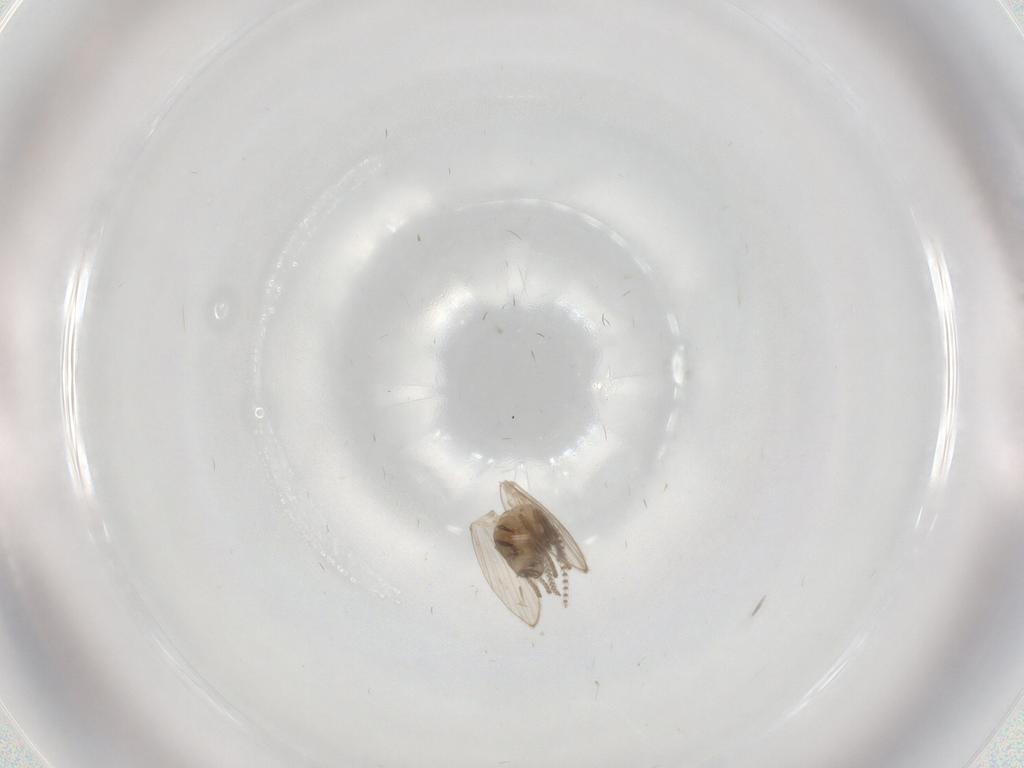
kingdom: Animalia
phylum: Arthropoda
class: Insecta
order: Diptera
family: Psychodidae
